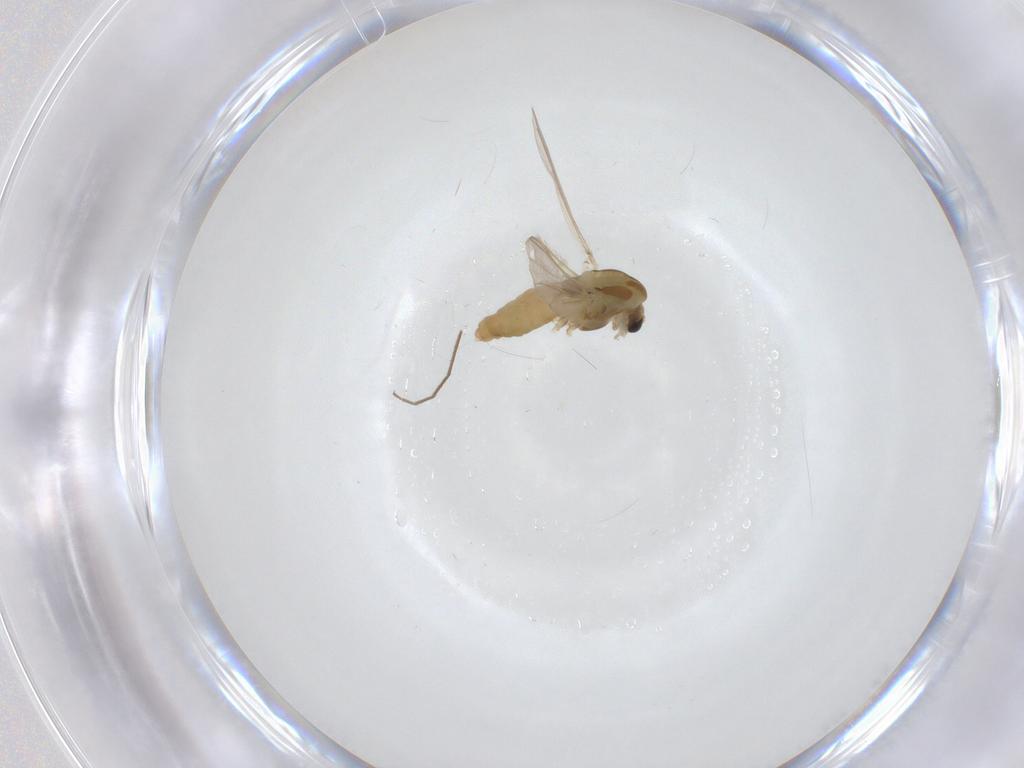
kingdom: Animalia
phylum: Arthropoda
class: Insecta
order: Diptera
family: Chironomidae
